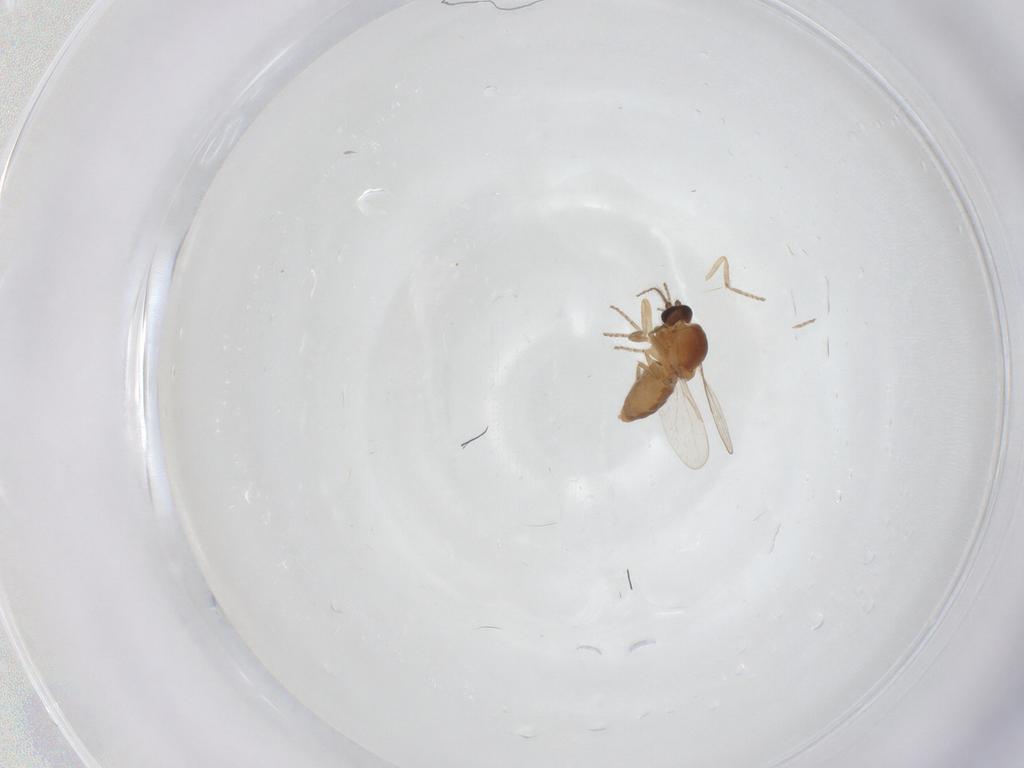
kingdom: Animalia
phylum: Arthropoda
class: Insecta
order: Diptera
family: Ceratopogonidae
